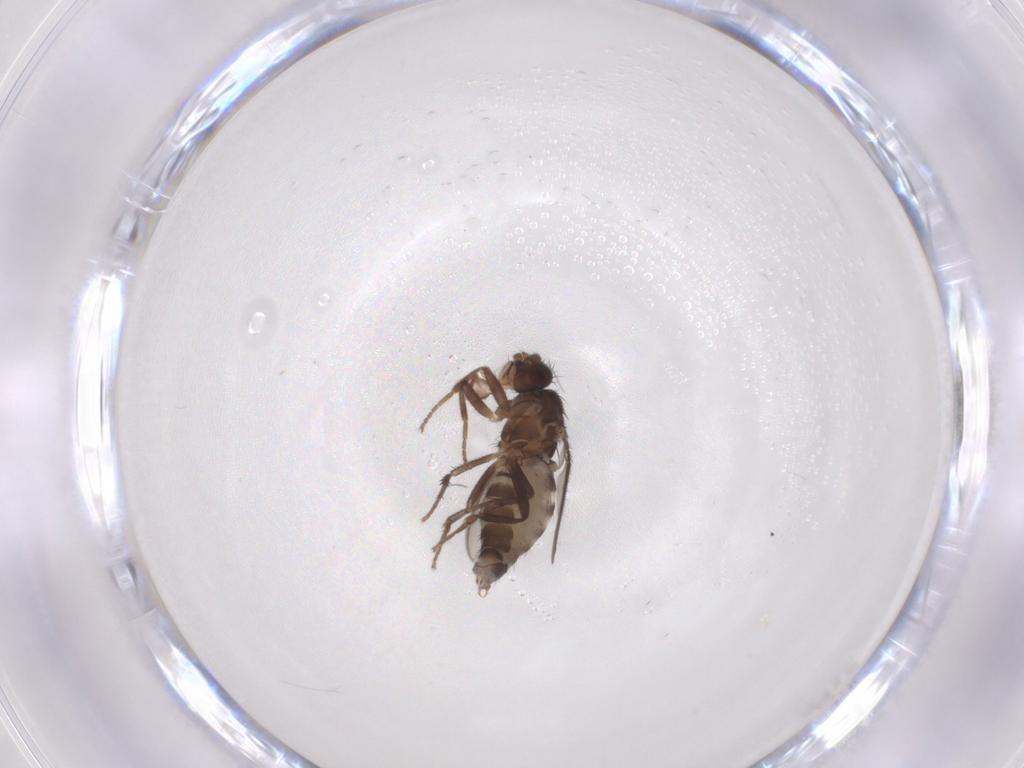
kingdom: Animalia
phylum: Arthropoda
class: Insecta
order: Diptera
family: Sphaeroceridae
